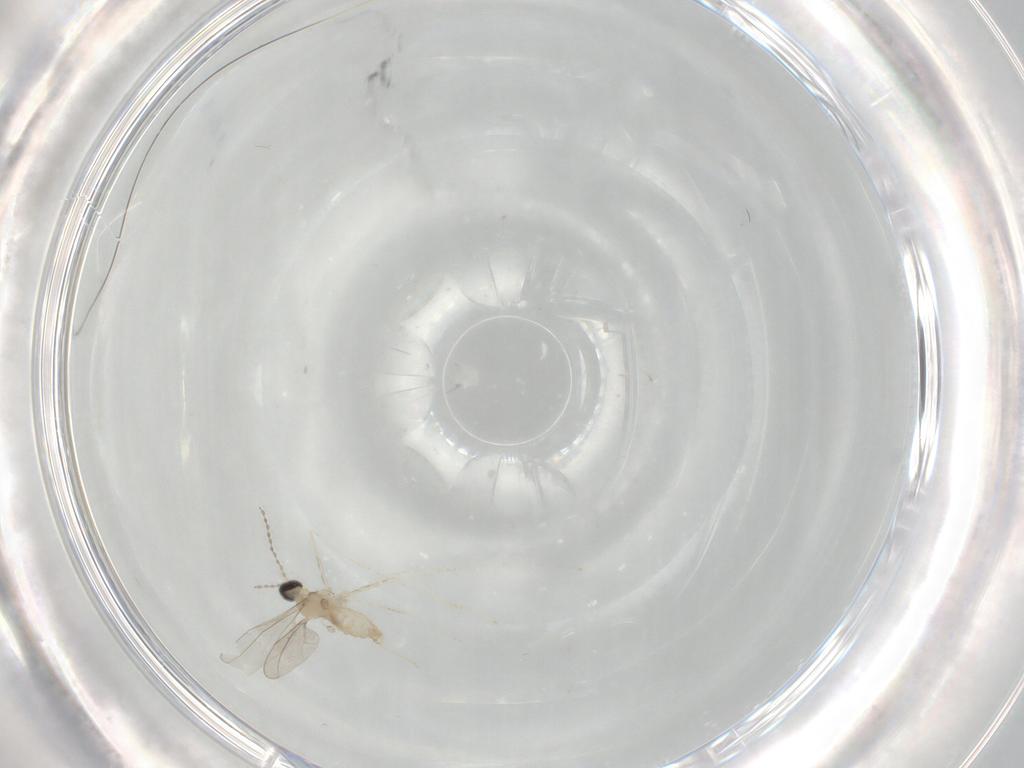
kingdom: Animalia
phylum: Arthropoda
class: Insecta
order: Diptera
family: Cecidomyiidae
